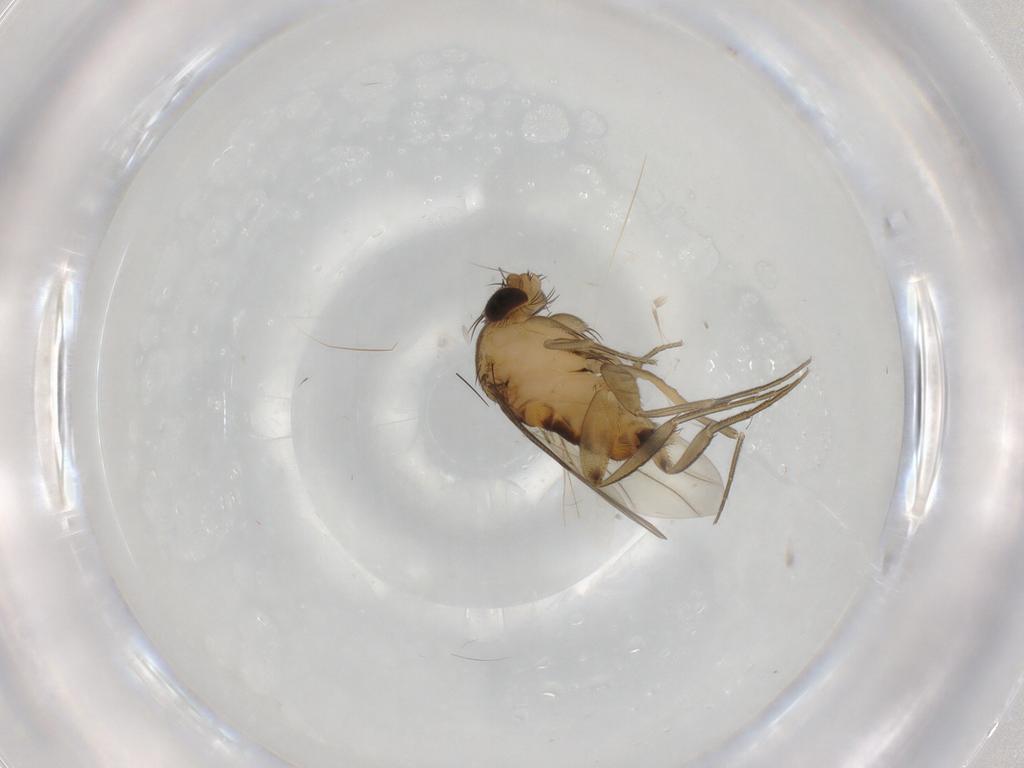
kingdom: Animalia
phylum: Arthropoda
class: Insecta
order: Diptera
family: Phoridae
